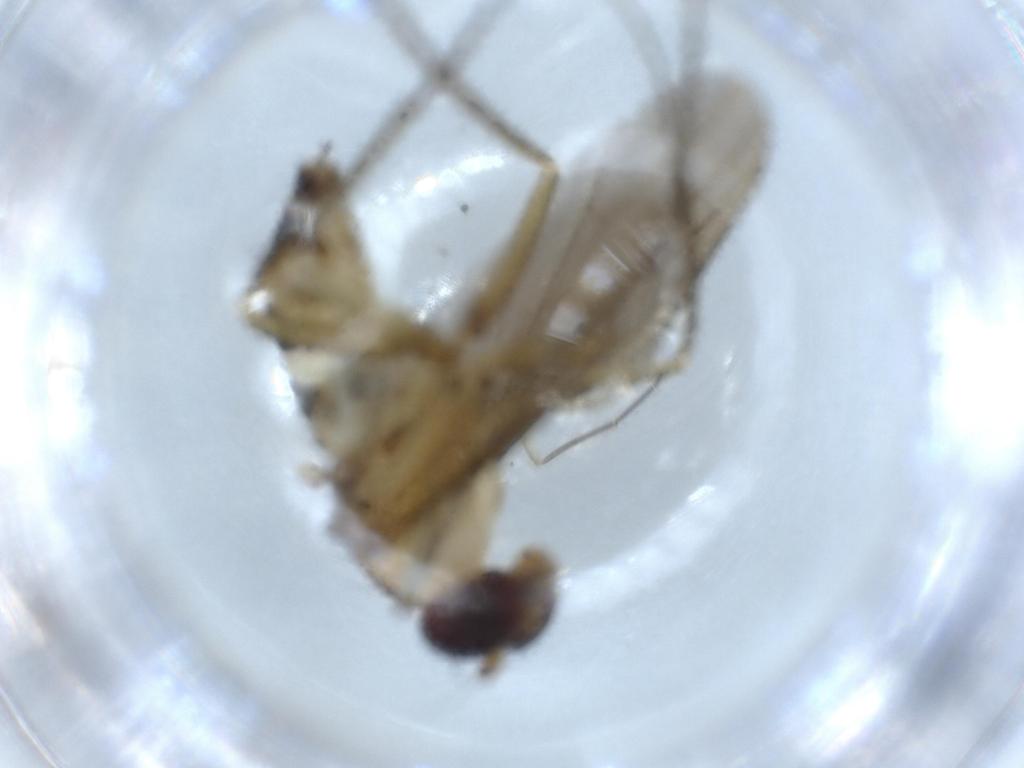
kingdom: Animalia
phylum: Arthropoda
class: Insecta
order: Diptera
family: Dolichopodidae
